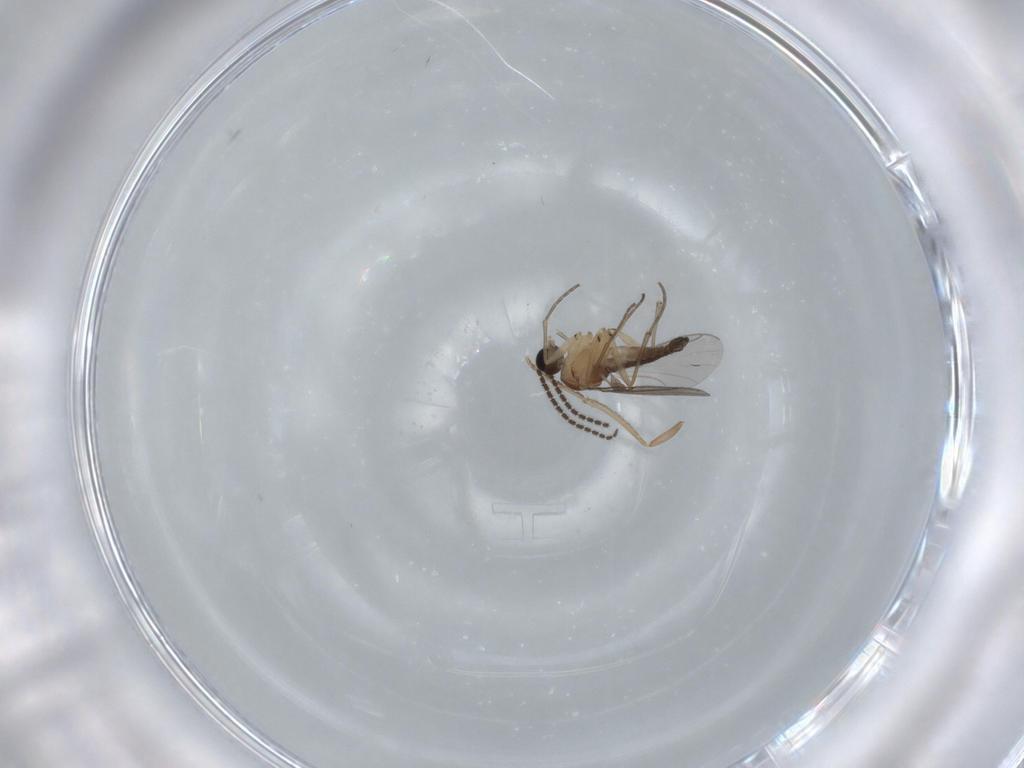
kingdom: Animalia
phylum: Arthropoda
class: Insecta
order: Diptera
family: Sciaridae
